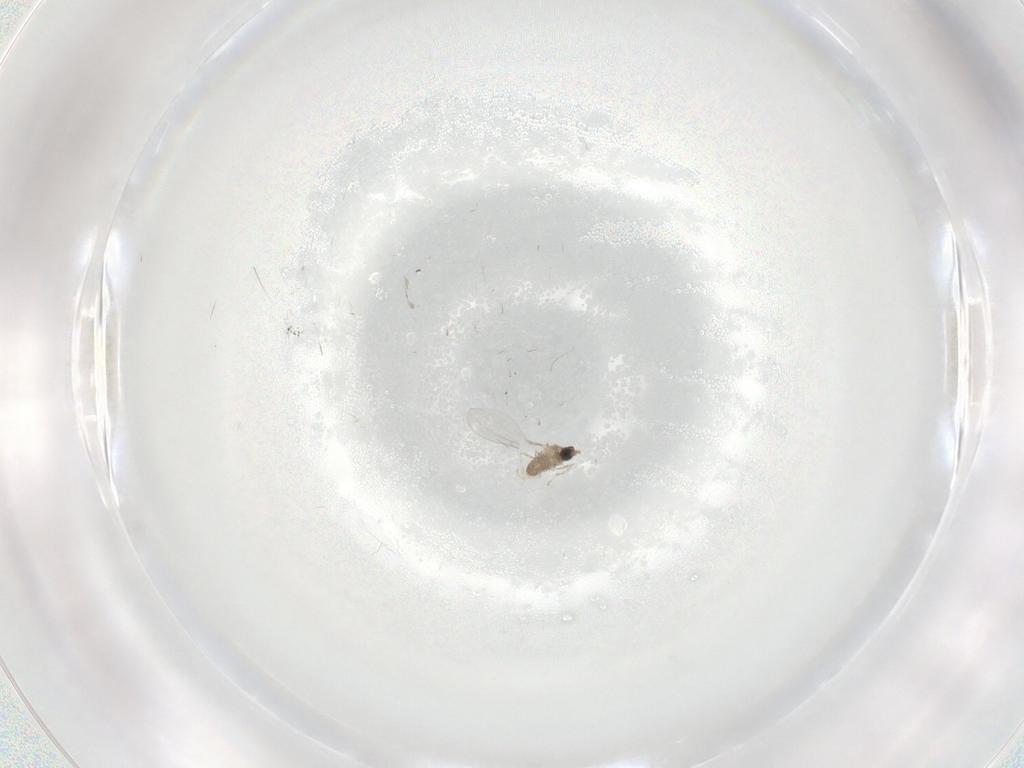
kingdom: Animalia
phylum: Arthropoda
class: Insecta
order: Diptera
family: Cecidomyiidae
